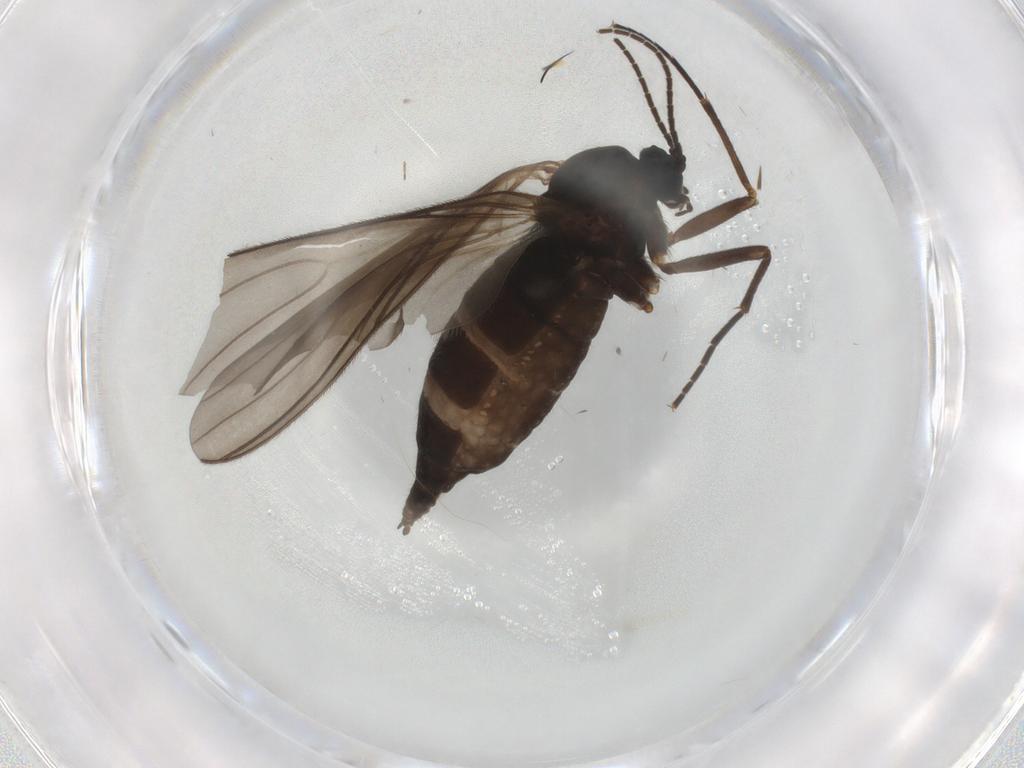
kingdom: Animalia
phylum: Arthropoda
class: Insecta
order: Diptera
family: Sciaridae
